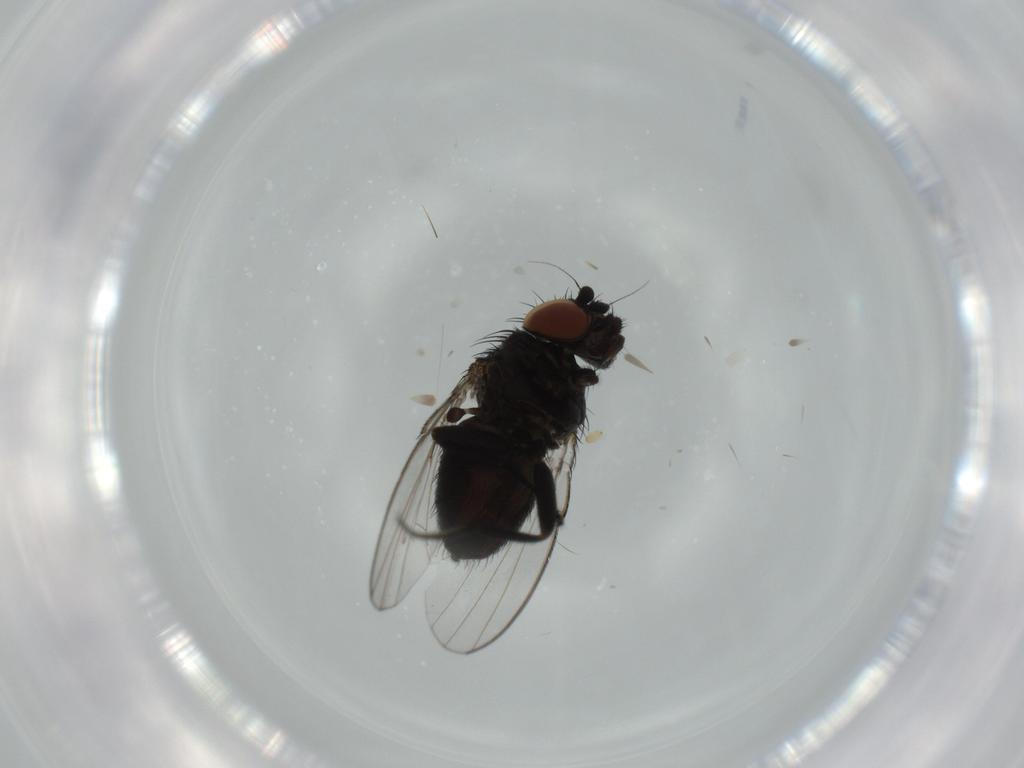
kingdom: Animalia
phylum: Arthropoda
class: Insecta
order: Diptera
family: Milichiidae
